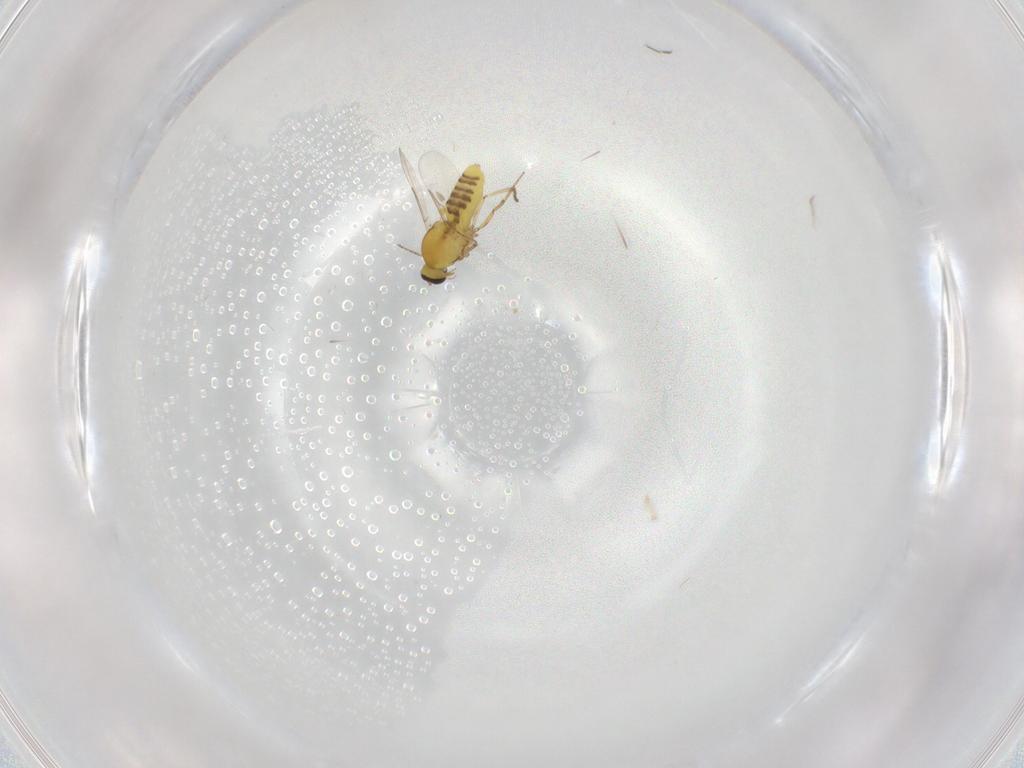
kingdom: Animalia
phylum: Arthropoda
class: Insecta
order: Diptera
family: Ceratopogonidae
